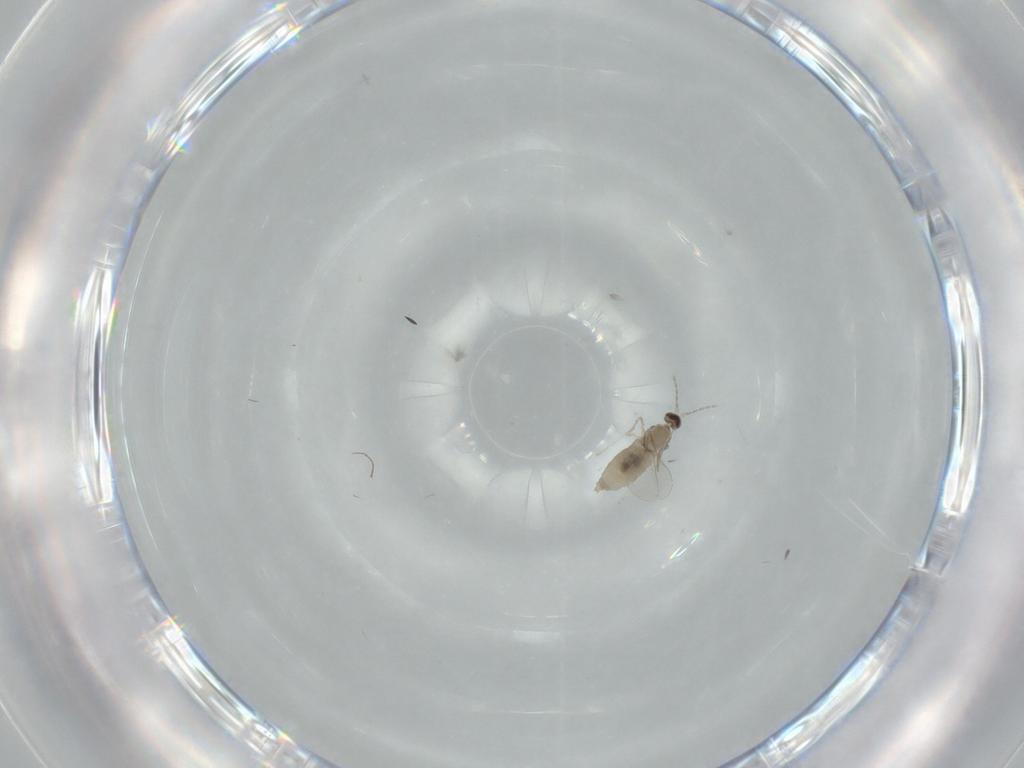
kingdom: Animalia
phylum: Arthropoda
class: Insecta
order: Diptera
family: Cecidomyiidae
